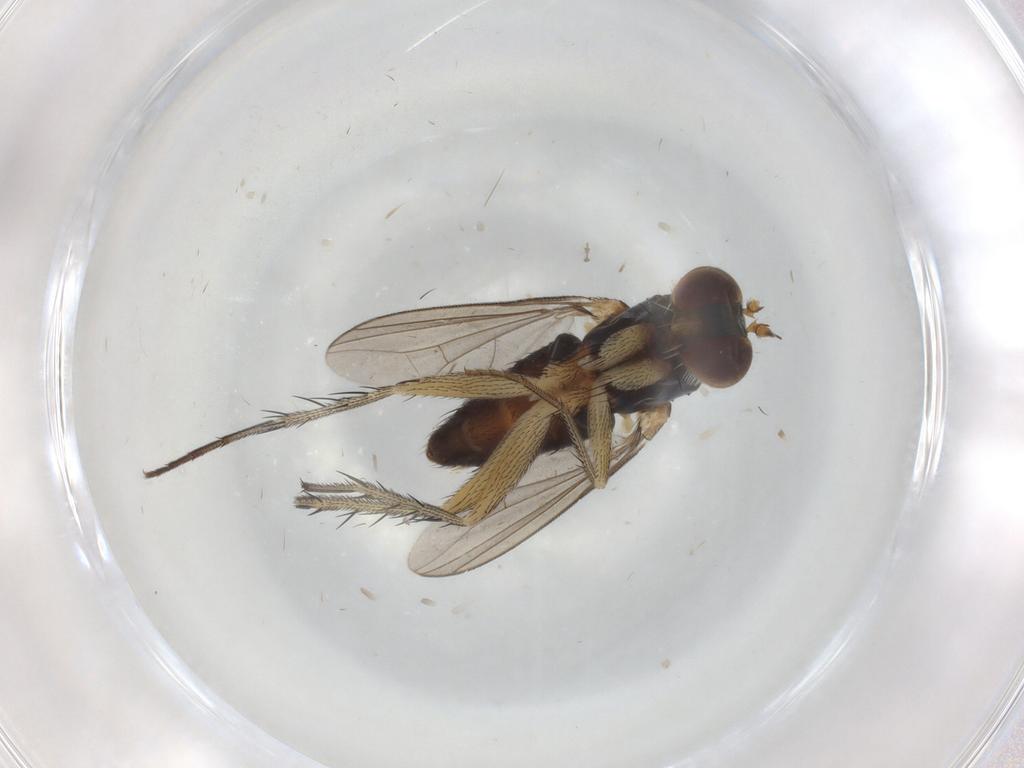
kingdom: Animalia
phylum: Arthropoda
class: Insecta
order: Diptera
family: Dolichopodidae
